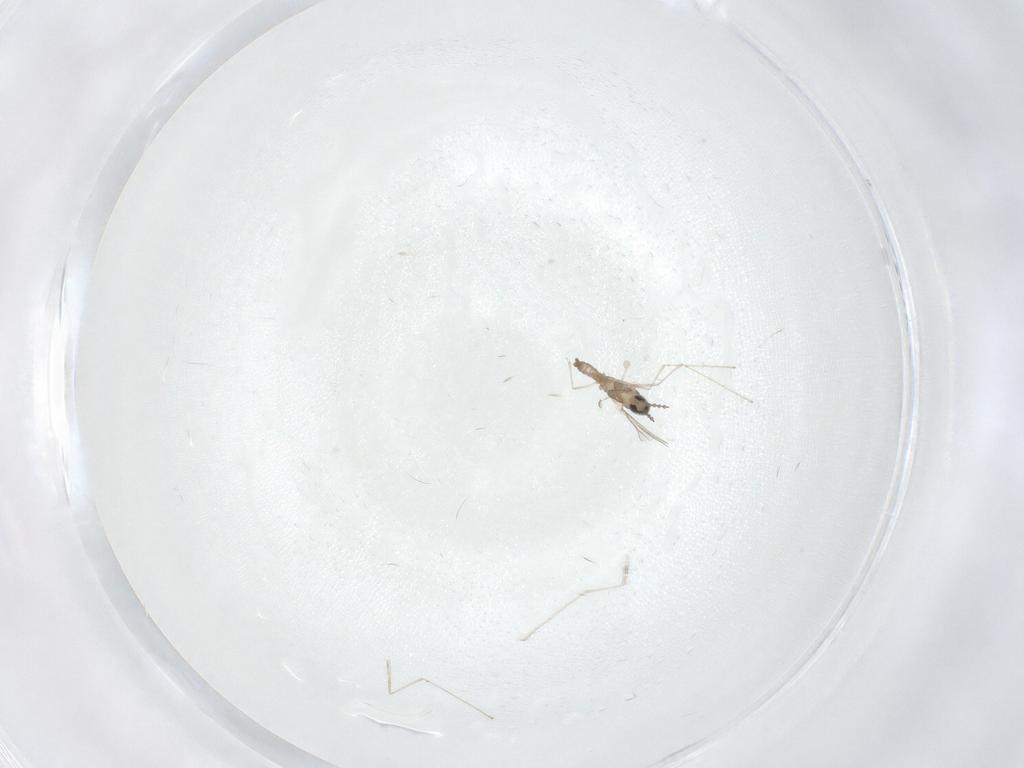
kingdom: Animalia
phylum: Arthropoda
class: Insecta
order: Diptera
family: Cecidomyiidae
